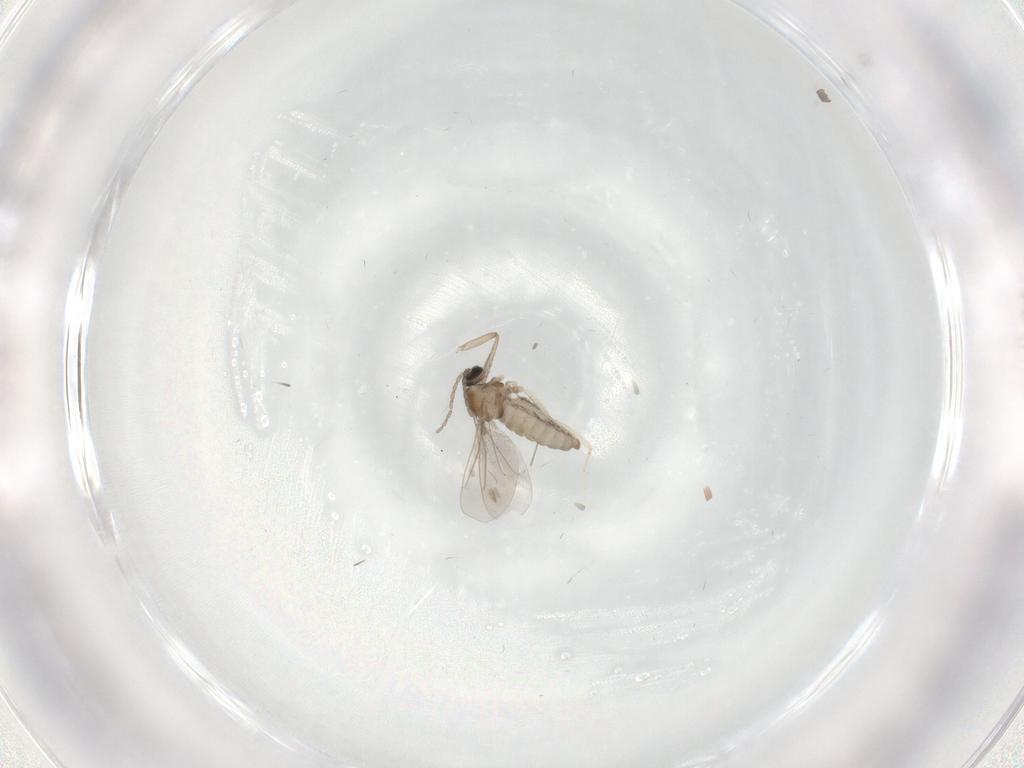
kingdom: Animalia
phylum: Arthropoda
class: Insecta
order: Diptera
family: Cecidomyiidae
